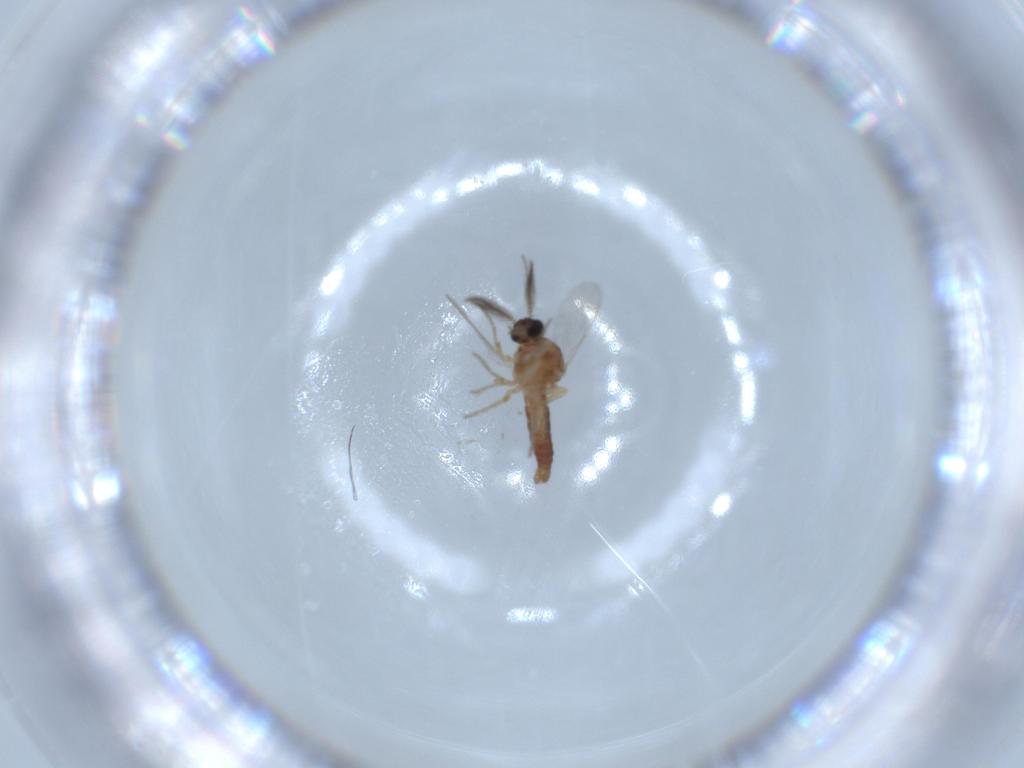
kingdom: Animalia
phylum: Arthropoda
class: Insecta
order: Diptera
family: Ceratopogonidae
